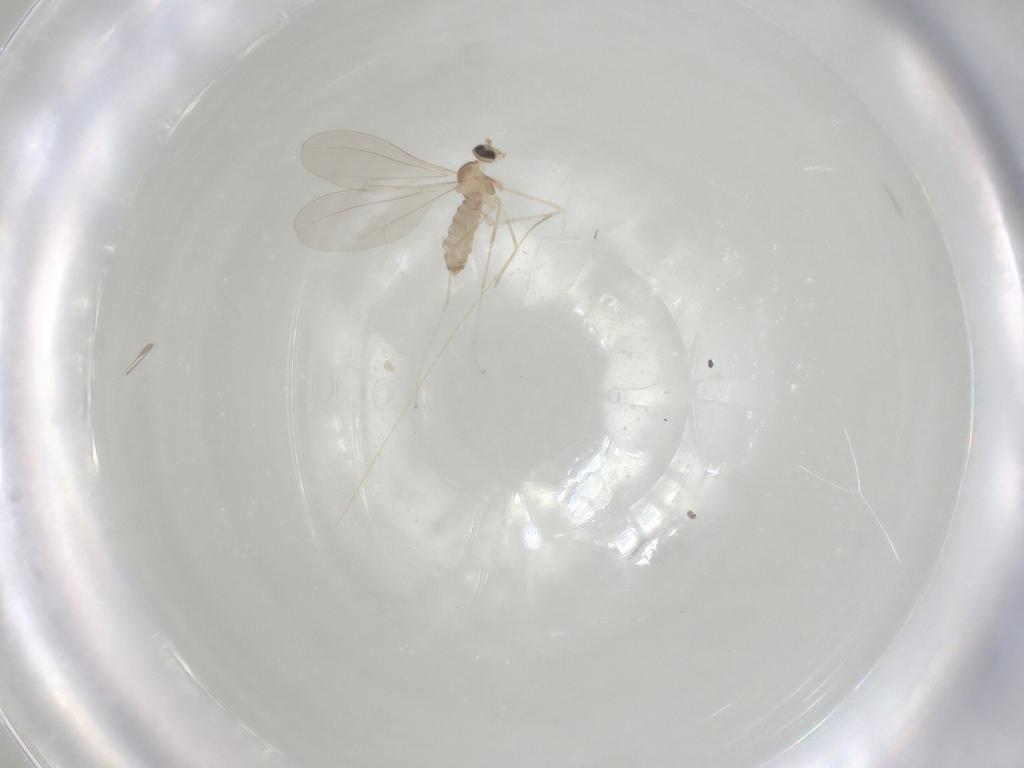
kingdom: Animalia
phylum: Arthropoda
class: Insecta
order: Diptera
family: Cecidomyiidae
